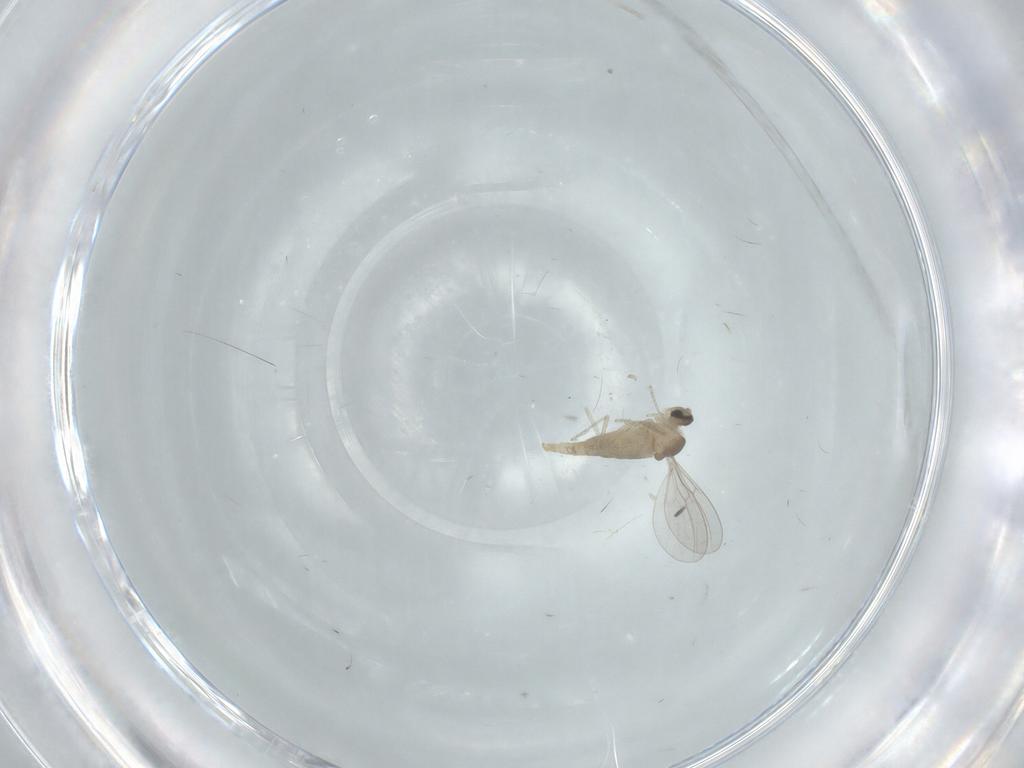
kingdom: Animalia
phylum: Arthropoda
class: Insecta
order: Diptera
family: Cecidomyiidae
